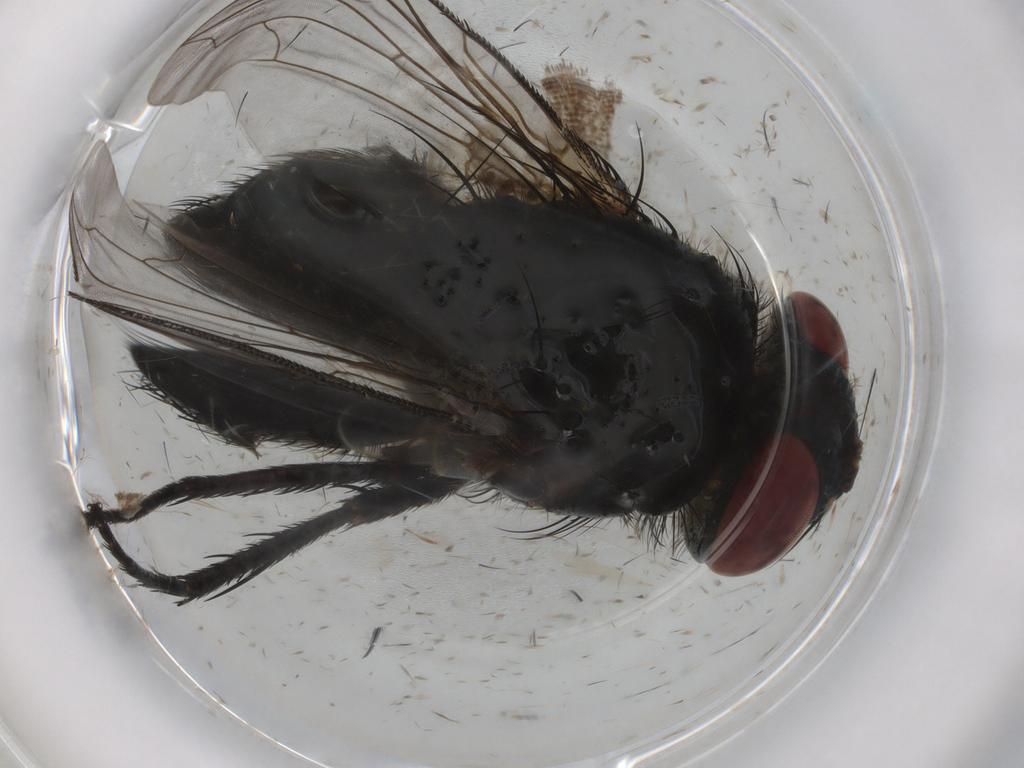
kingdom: Animalia
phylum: Arthropoda
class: Insecta
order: Diptera
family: Tachinidae
